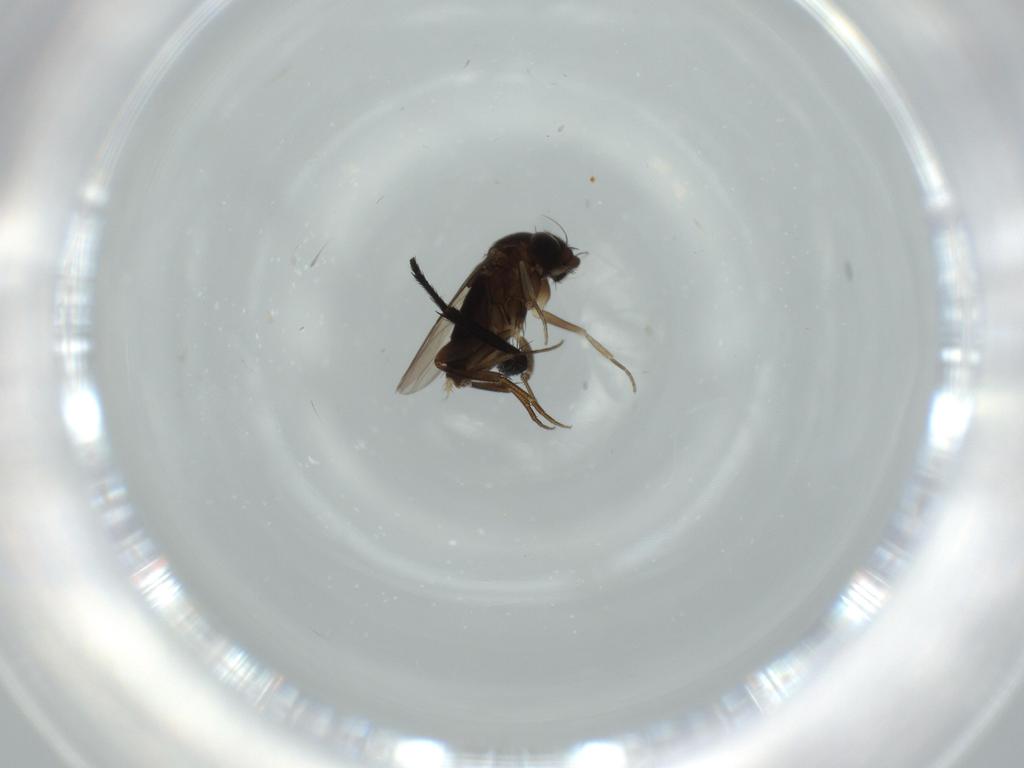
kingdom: Animalia
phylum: Arthropoda
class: Insecta
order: Diptera
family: Milichiidae
